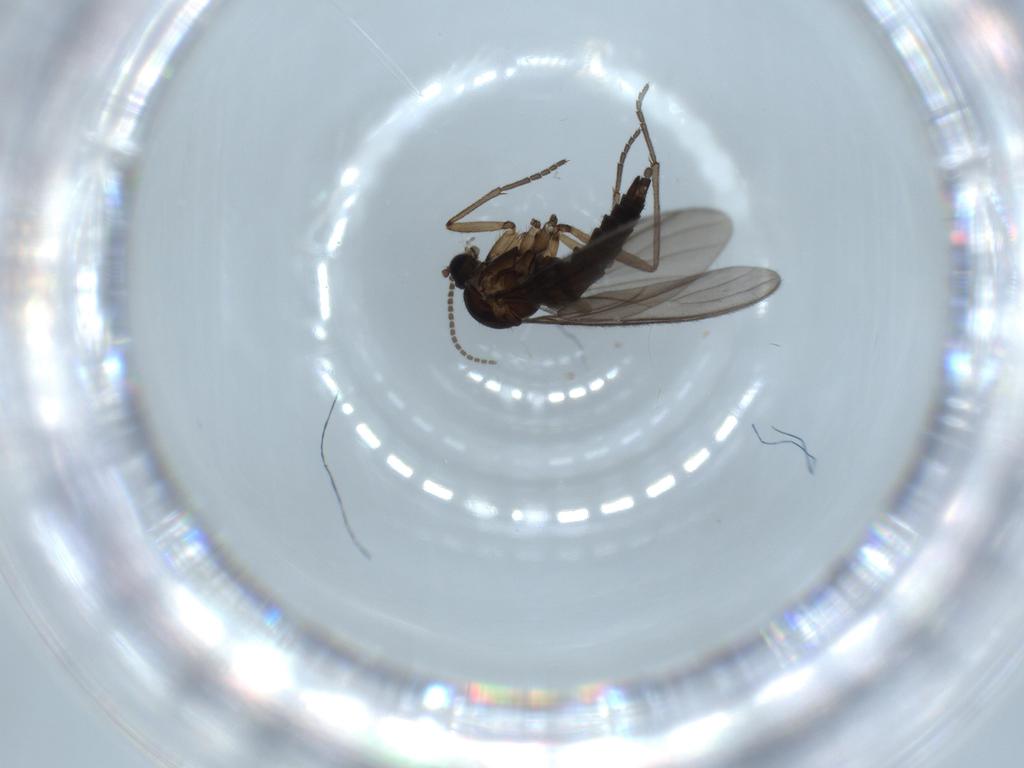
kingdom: Animalia
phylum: Arthropoda
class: Insecta
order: Diptera
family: Sciaridae
